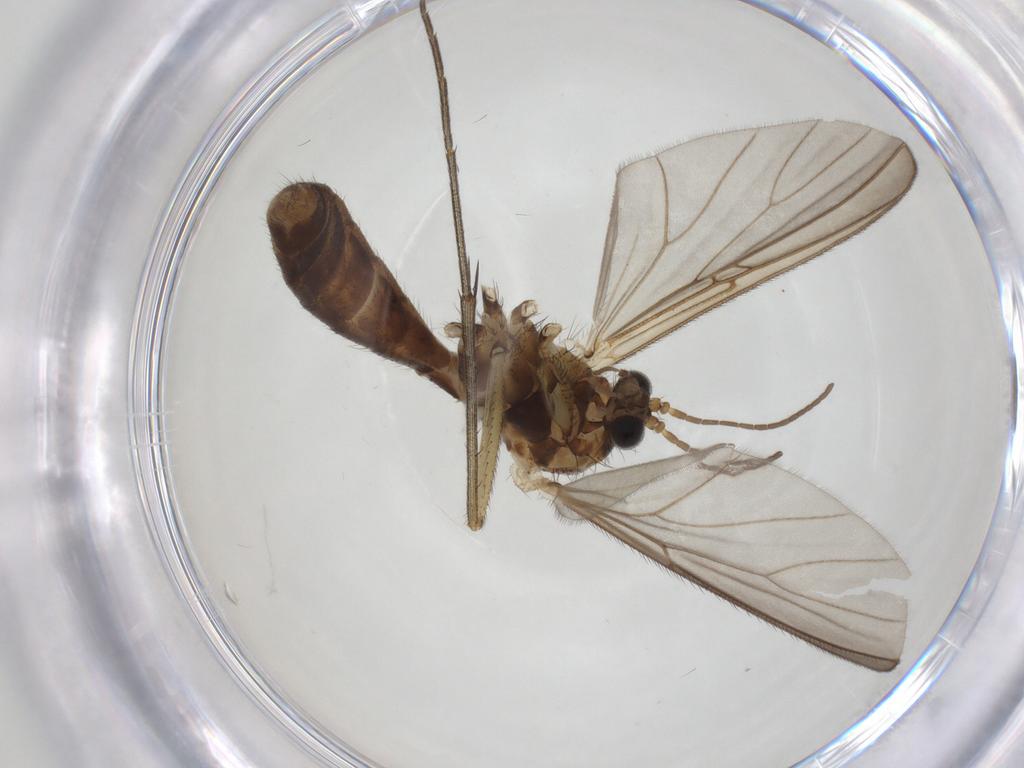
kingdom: Animalia
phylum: Arthropoda
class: Insecta
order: Diptera
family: Mycetophilidae
